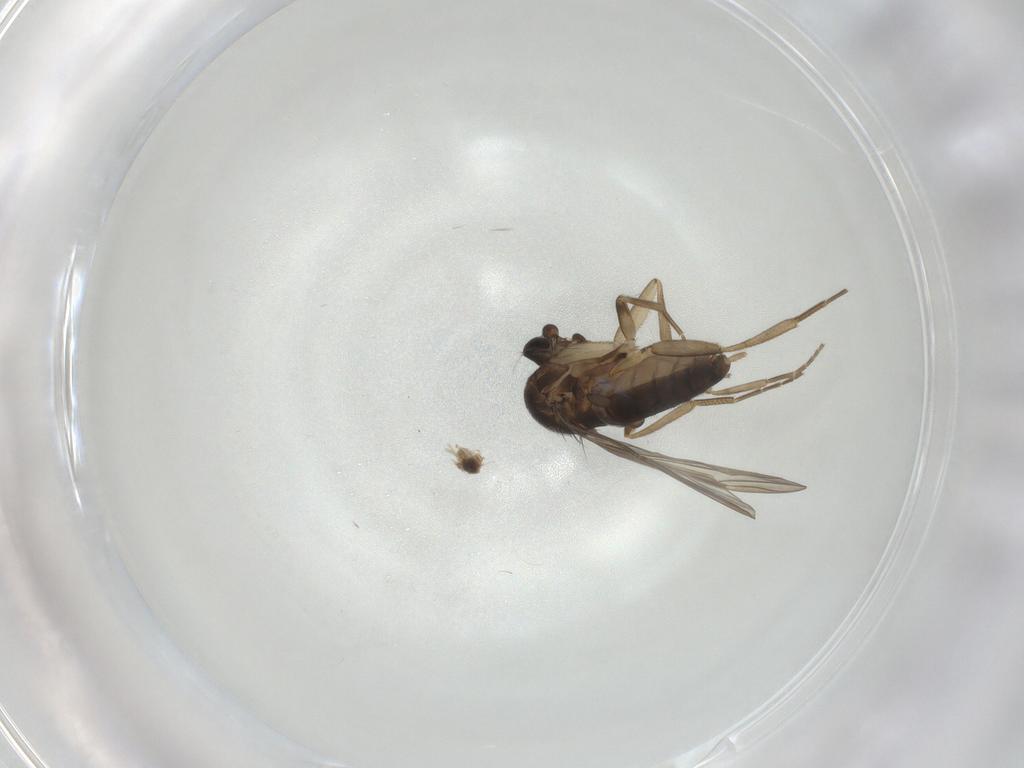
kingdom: Animalia
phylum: Arthropoda
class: Insecta
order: Diptera
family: Phoridae
